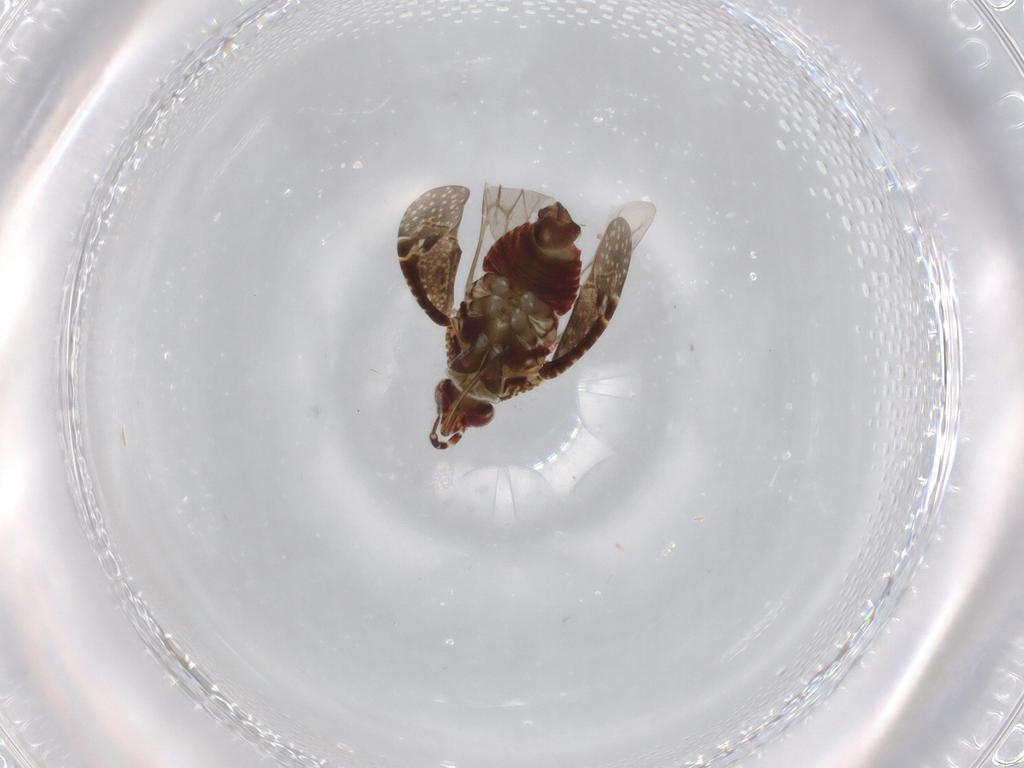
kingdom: Animalia
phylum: Arthropoda
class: Insecta
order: Hemiptera
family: Miridae
